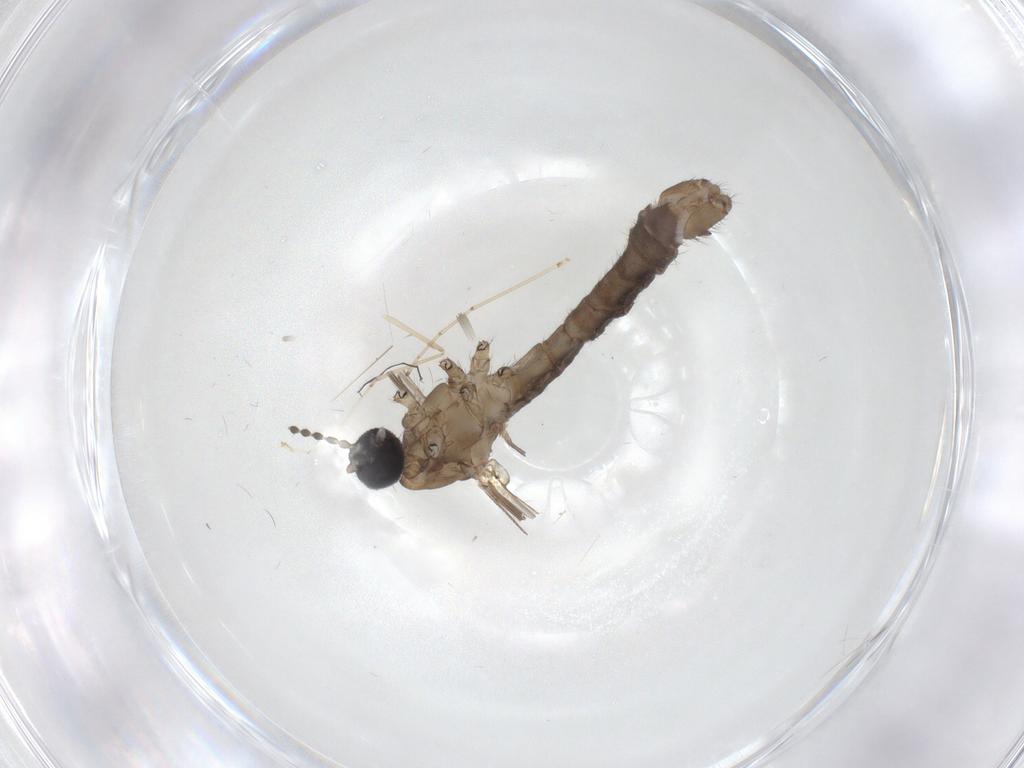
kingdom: Animalia
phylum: Arthropoda
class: Insecta
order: Diptera
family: Limoniidae
